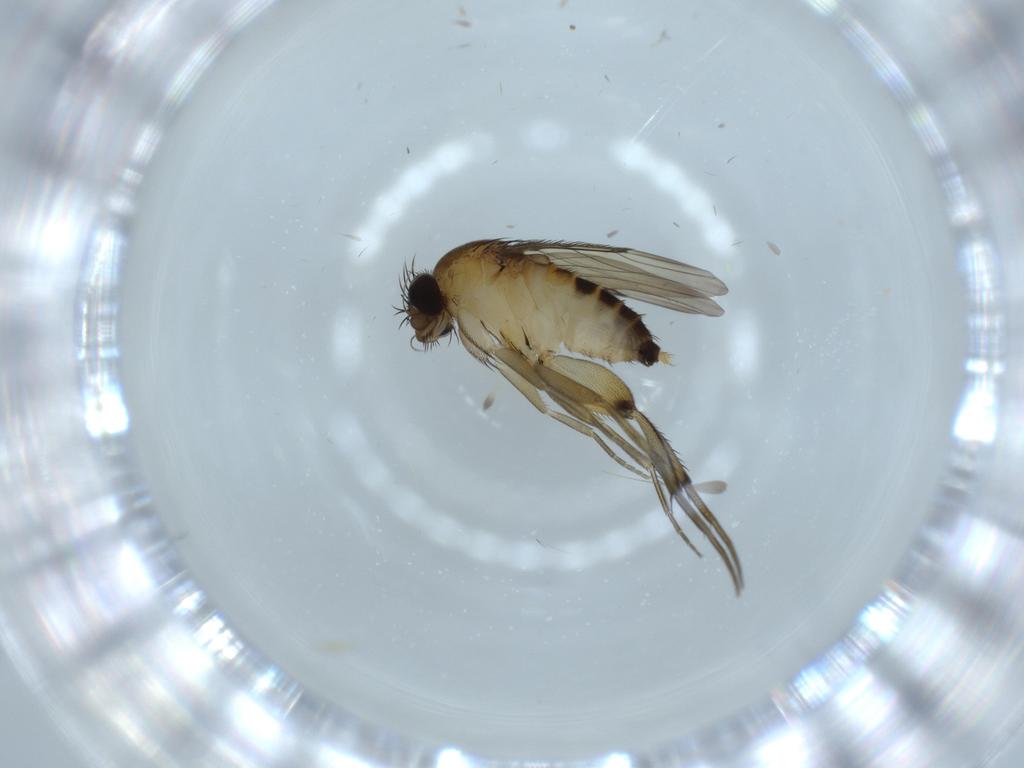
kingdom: Animalia
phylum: Arthropoda
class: Insecta
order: Diptera
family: Phoridae
